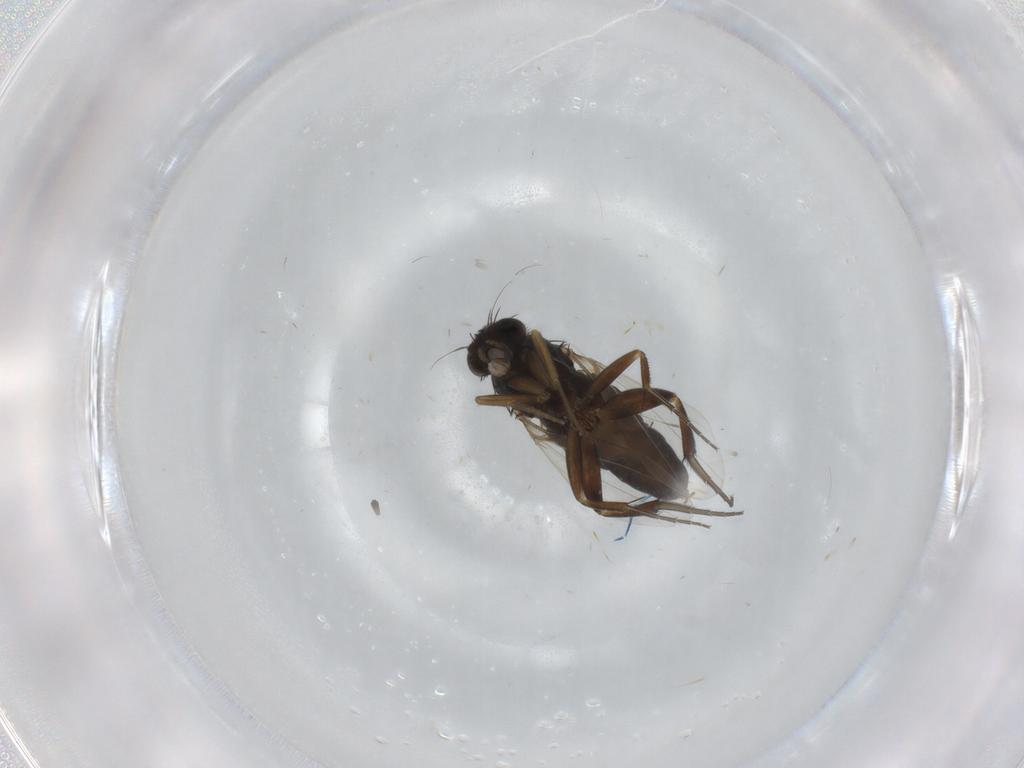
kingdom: Animalia
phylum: Arthropoda
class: Insecta
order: Diptera
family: Phoridae
